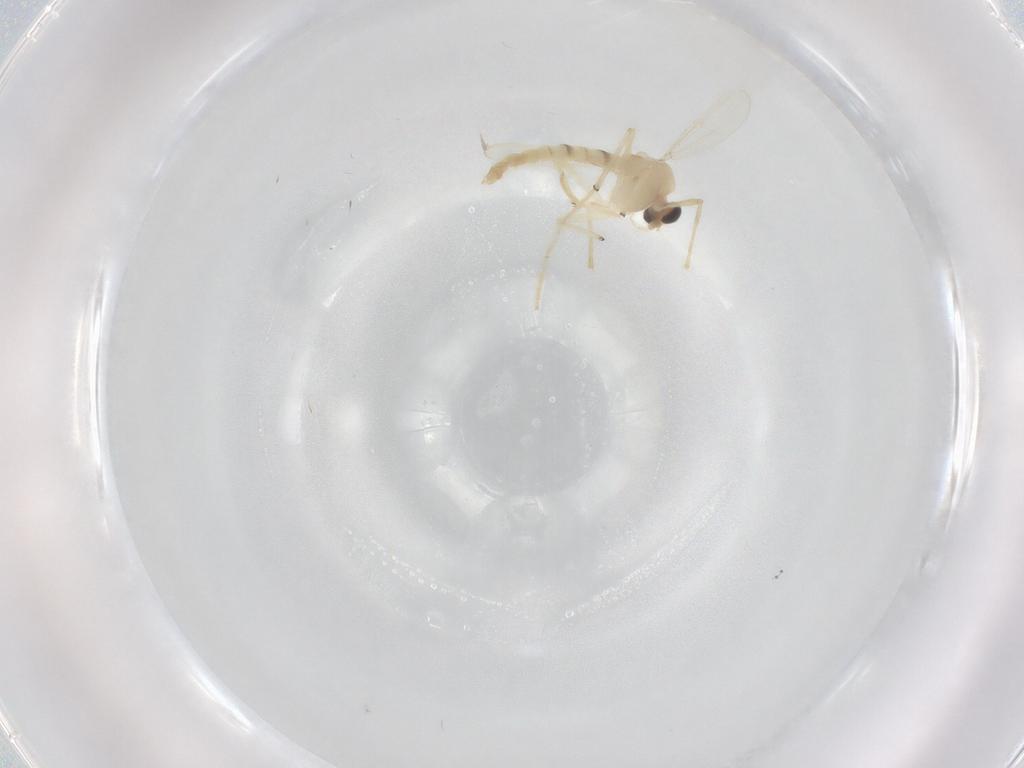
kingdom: Animalia
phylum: Arthropoda
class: Insecta
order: Diptera
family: Chironomidae
